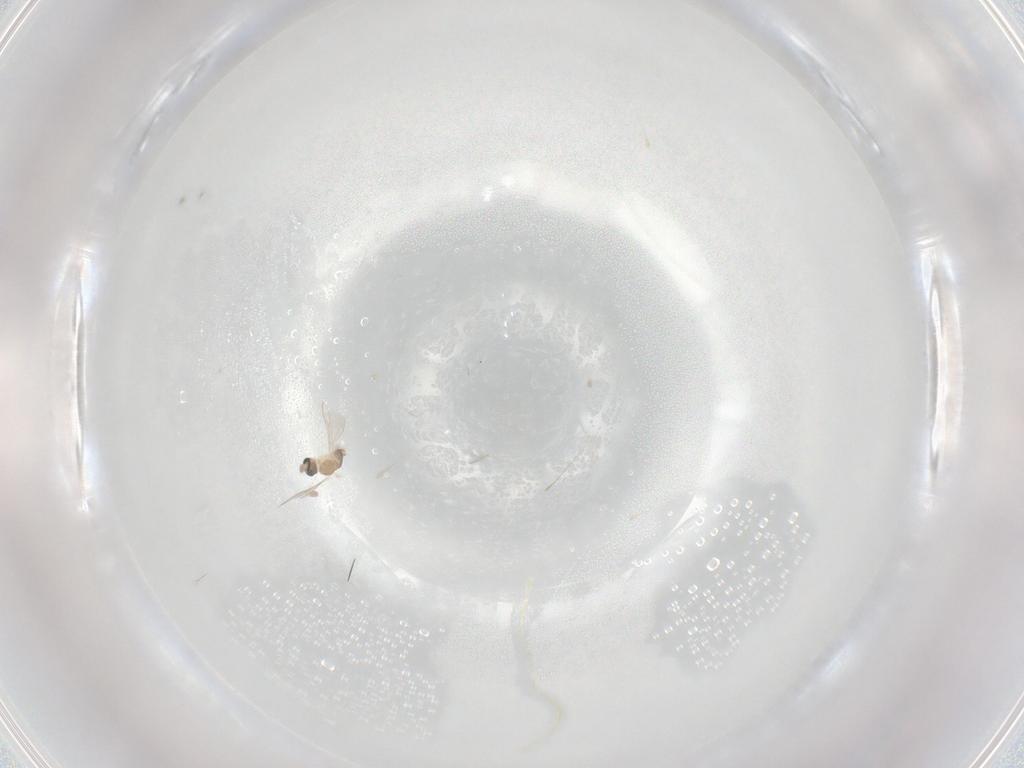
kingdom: Animalia
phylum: Arthropoda
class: Insecta
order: Diptera
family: Cecidomyiidae
